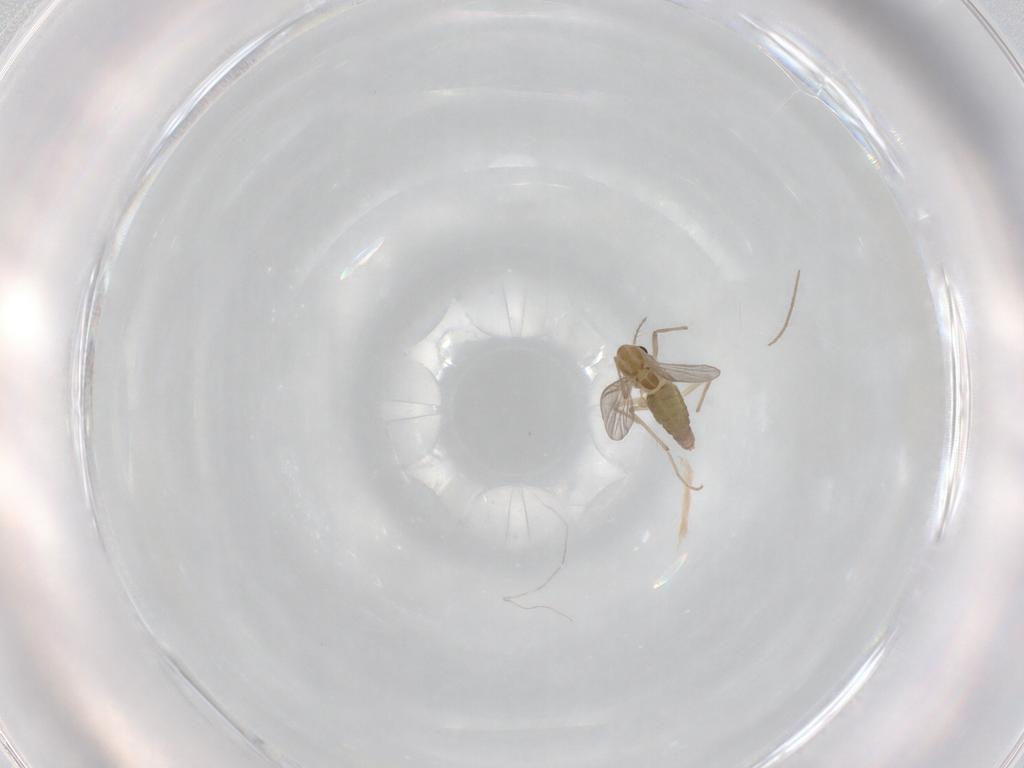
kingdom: Animalia
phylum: Arthropoda
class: Insecta
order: Diptera
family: Chironomidae
